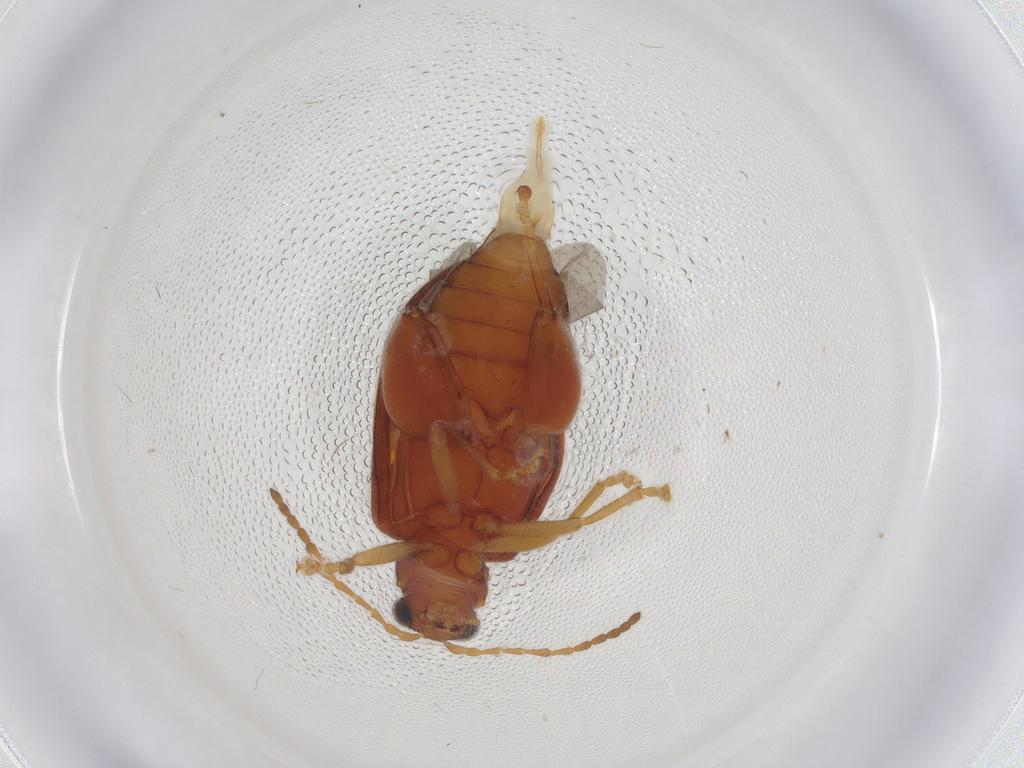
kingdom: Animalia
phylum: Arthropoda
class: Insecta
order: Coleoptera
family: Chrysomelidae
